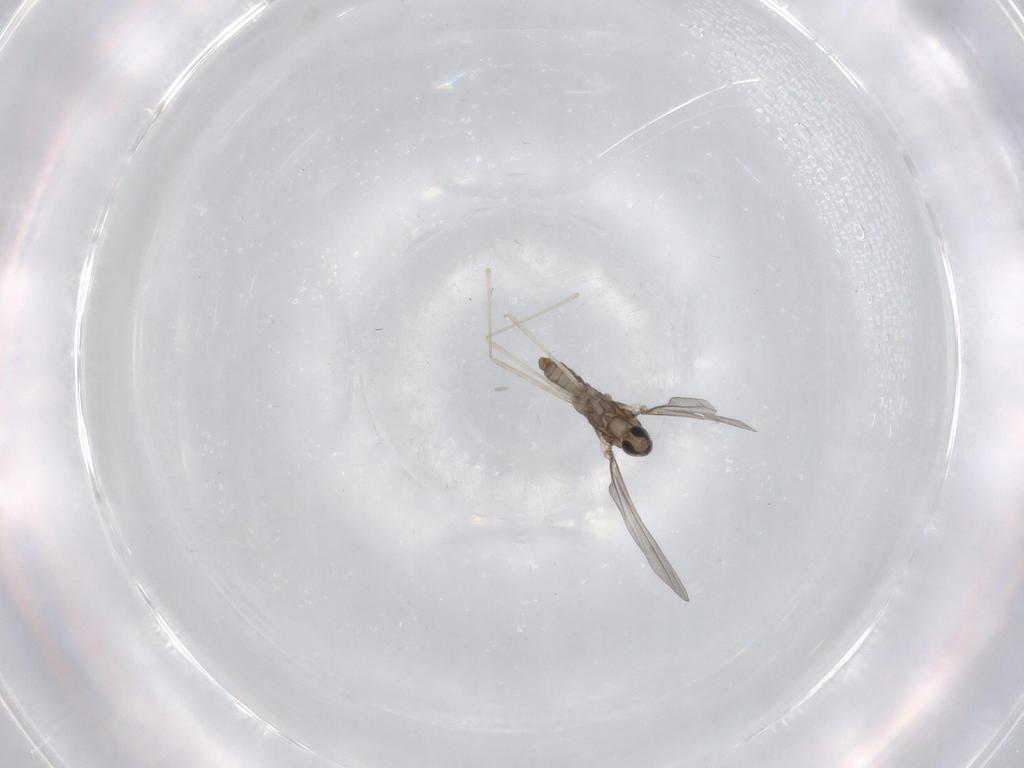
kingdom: Animalia
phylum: Arthropoda
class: Insecta
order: Diptera
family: Cecidomyiidae
